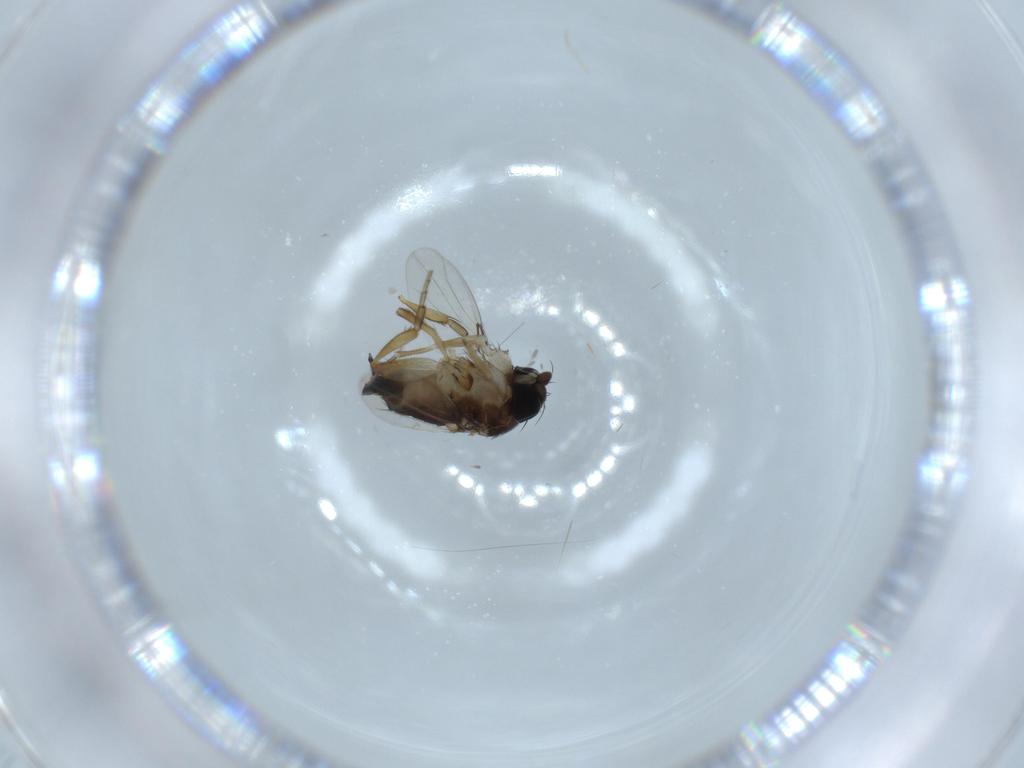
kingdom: Animalia
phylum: Arthropoda
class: Insecta
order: Diptera
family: Phoridae
